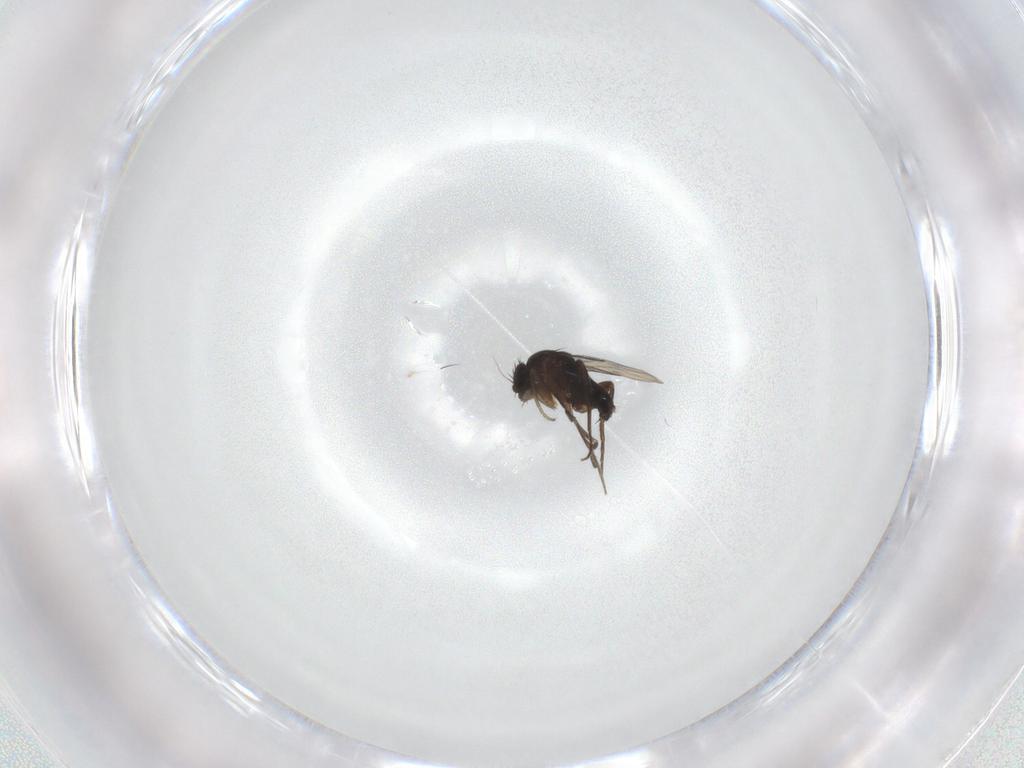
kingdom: Animalia
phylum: Arthropoda
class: Insecta
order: Diptera
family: Phoridae
